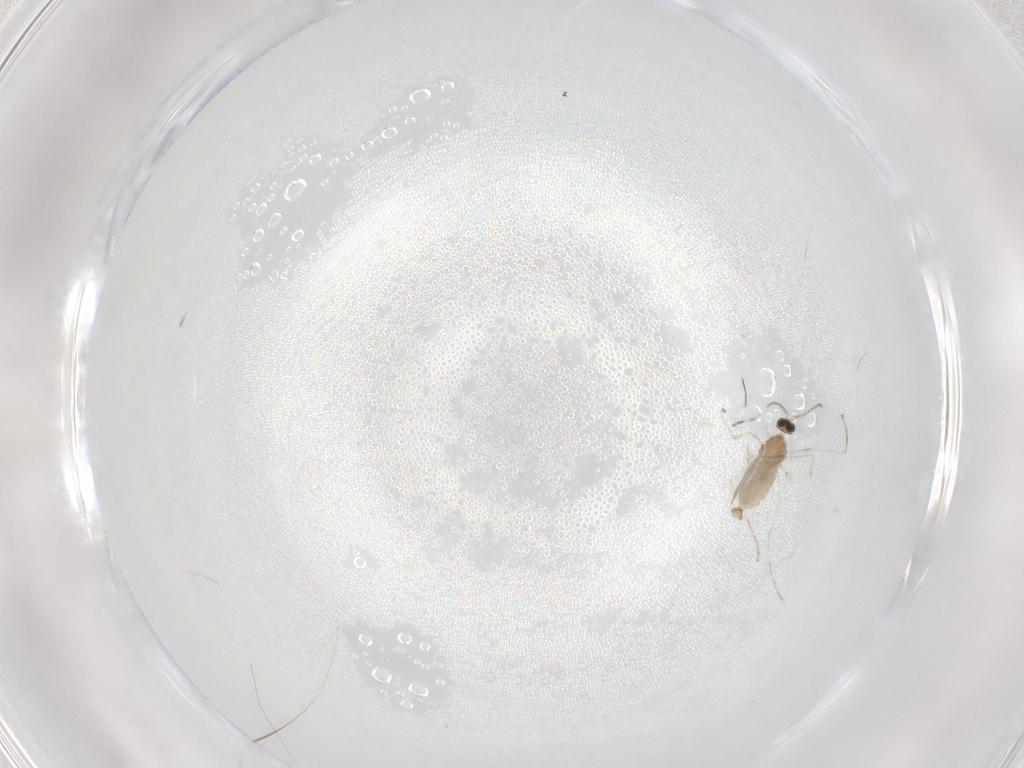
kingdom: Animalia
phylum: Arthropoda
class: Insecta
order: Diptera
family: Cecidomyiidae
